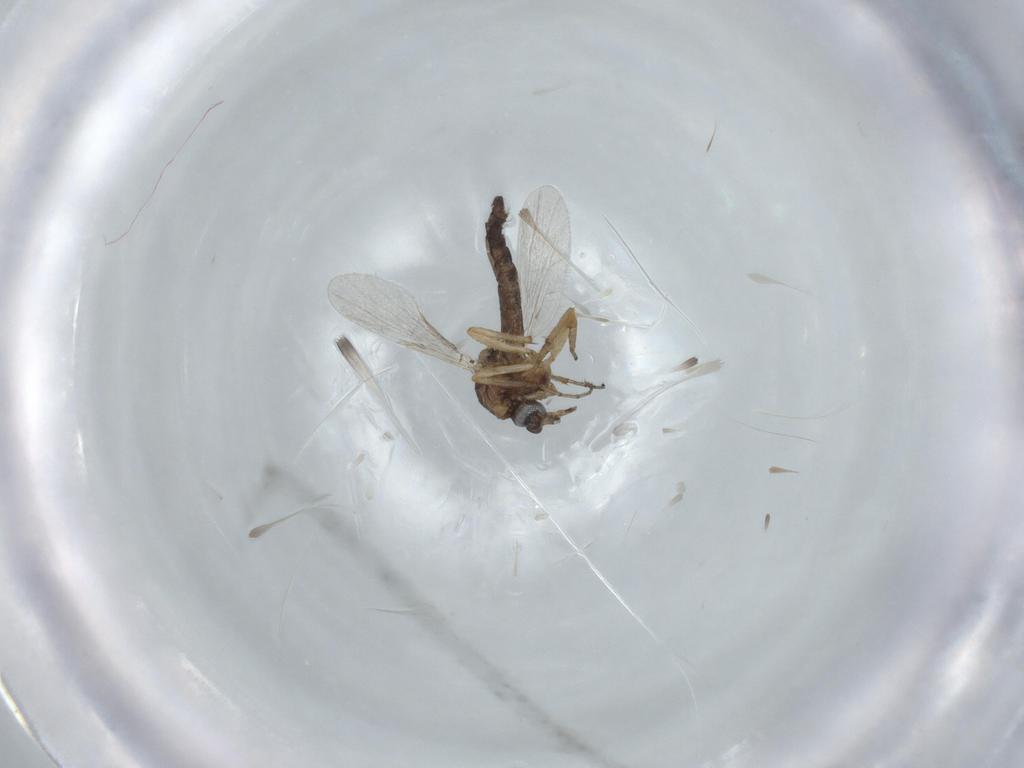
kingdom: Animalia
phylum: Arthropoda
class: Insecta
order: Diptera
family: Ceratopogonidae
